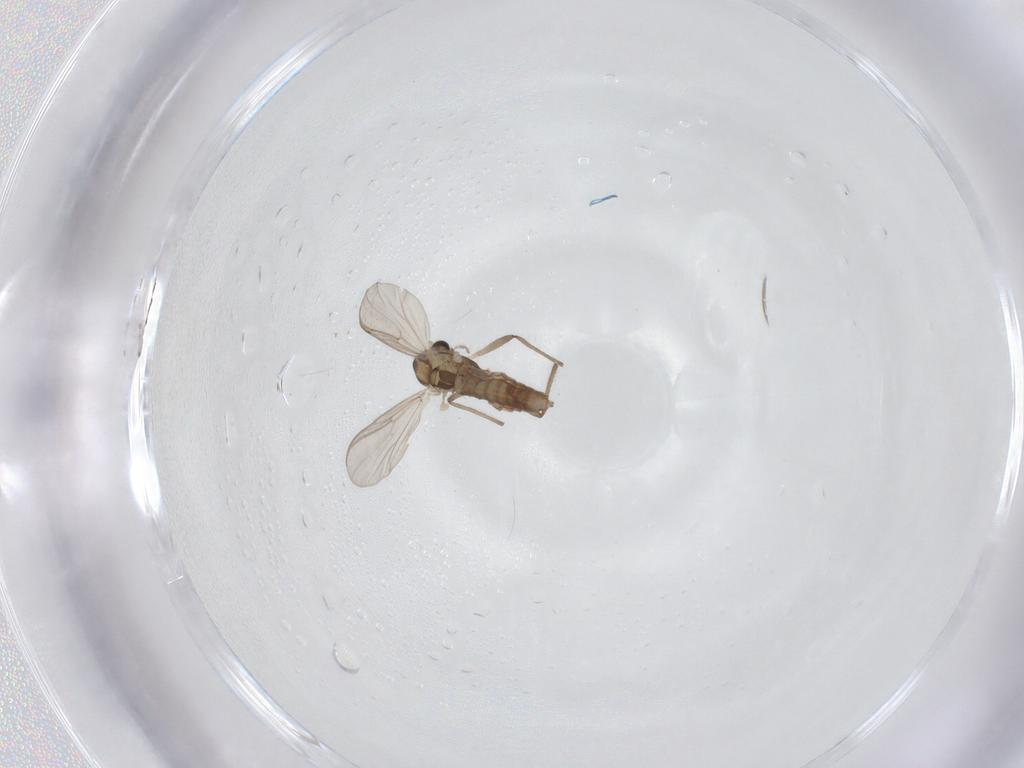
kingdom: Animalia
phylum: Arthropoda
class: Insecta
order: Diptera
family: Chironomidae
